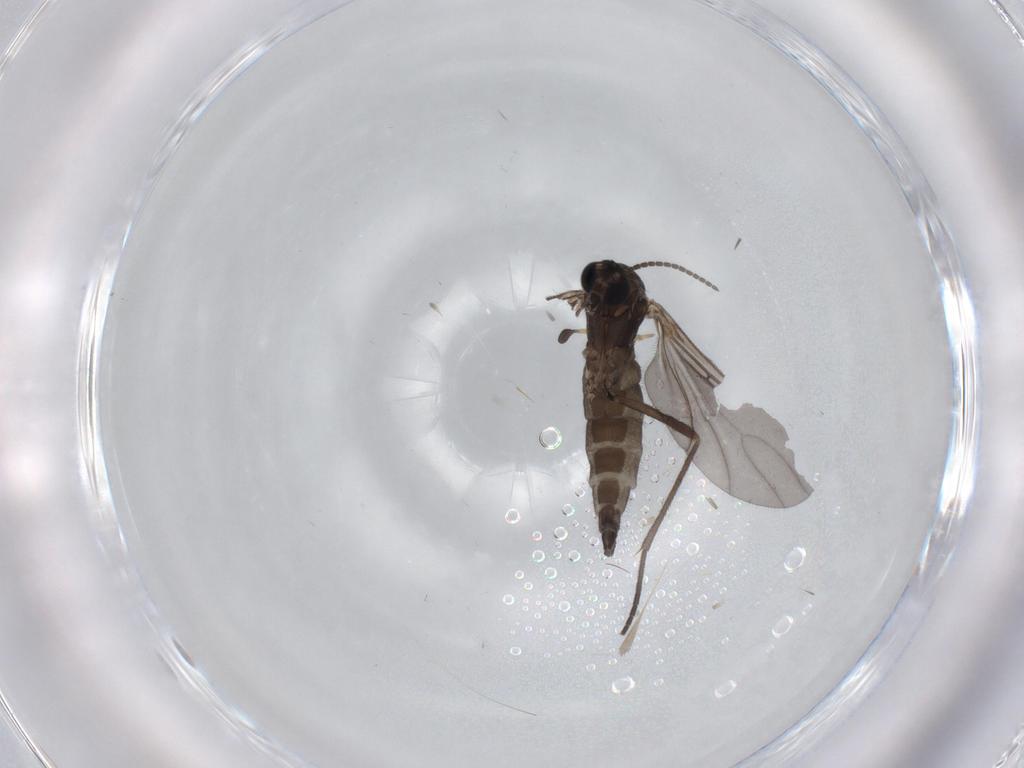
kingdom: Animalia
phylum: Arthropoda
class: Insecta
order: Diptera
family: Sciaridae
